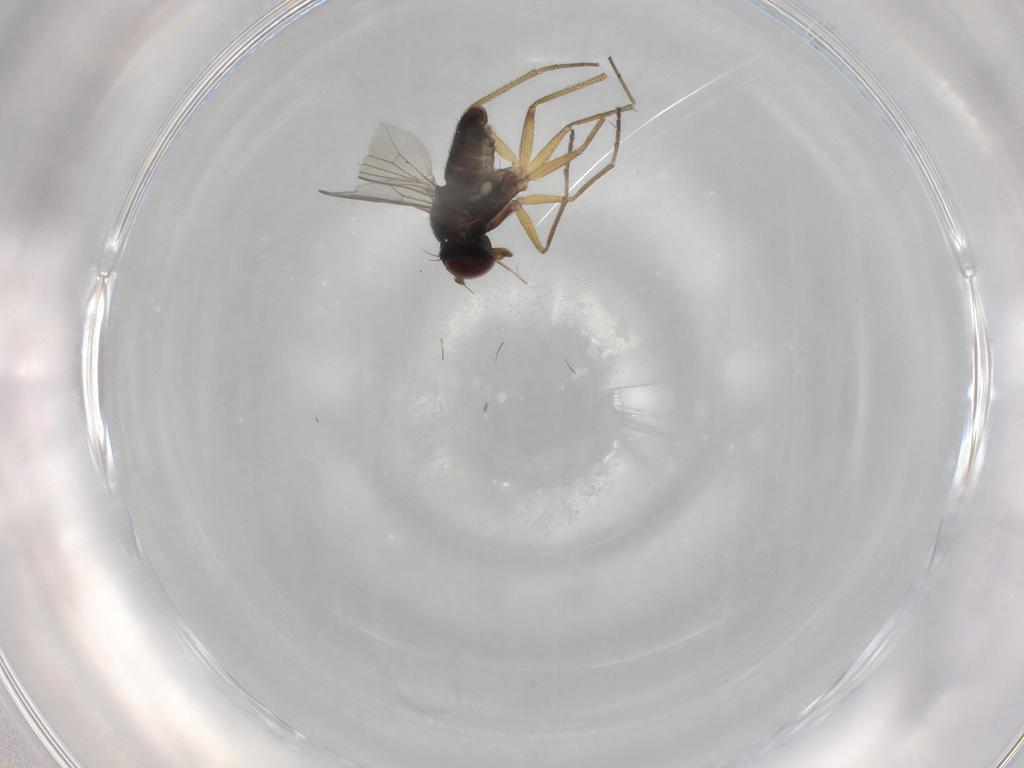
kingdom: Animalia
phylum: Arthropoda
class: Insecta
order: Diptera
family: Dolichopodidae
